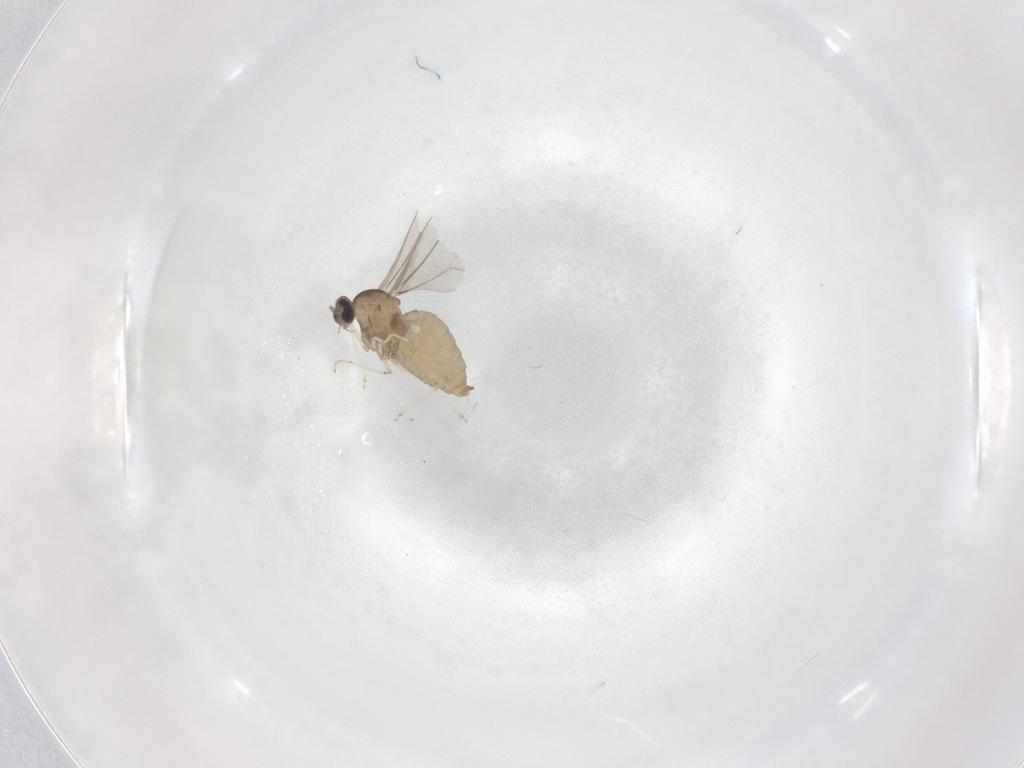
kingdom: Animalia
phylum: Arthropoda
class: Insecta
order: Diptera
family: Cecidomyiidae
